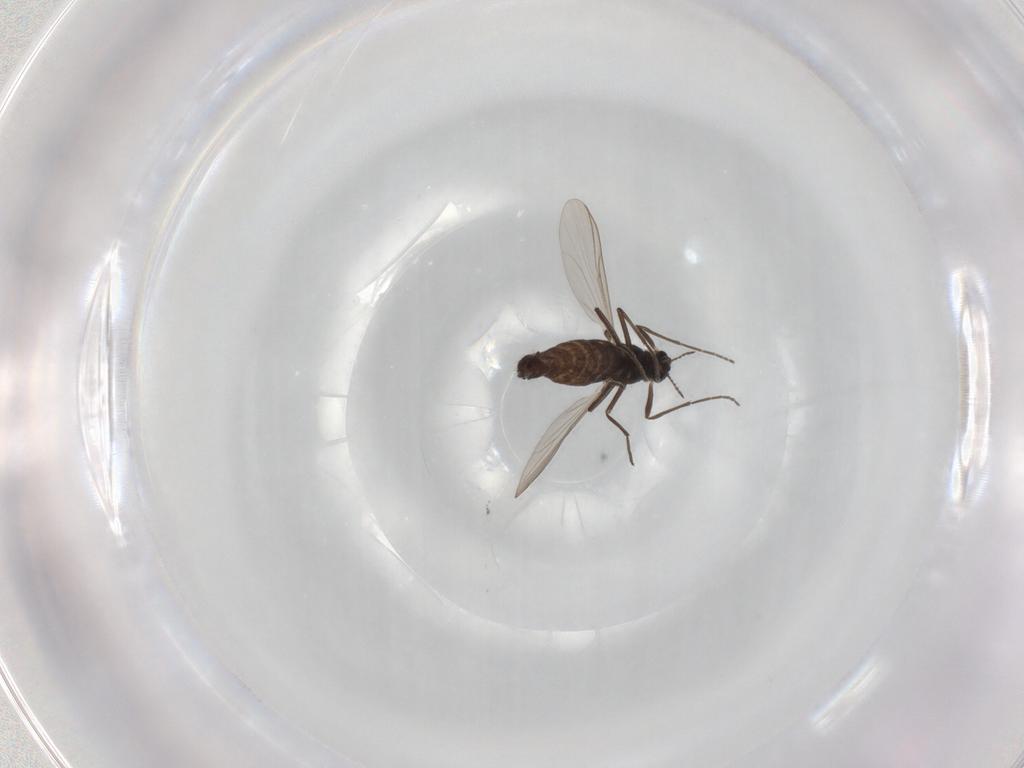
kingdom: Animalia
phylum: Arthropoda
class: Insecta
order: Diptera
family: Chironomidae
